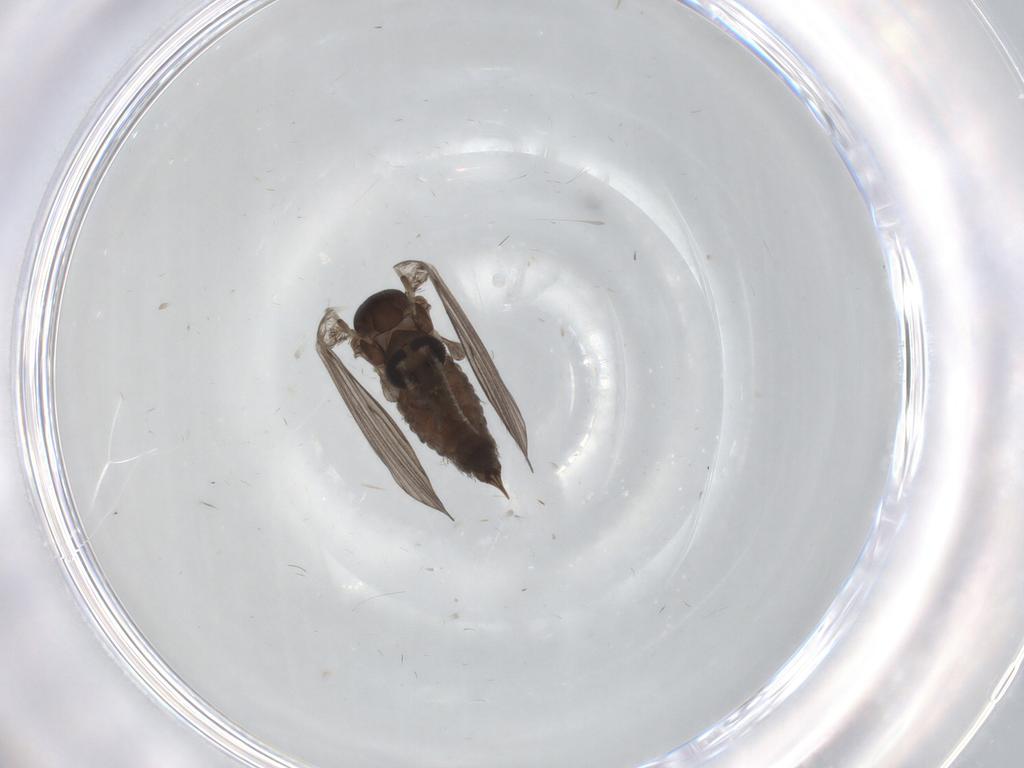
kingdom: Animalia
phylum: Arthropoda
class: Insecta
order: Diptera
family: Psychodidae
